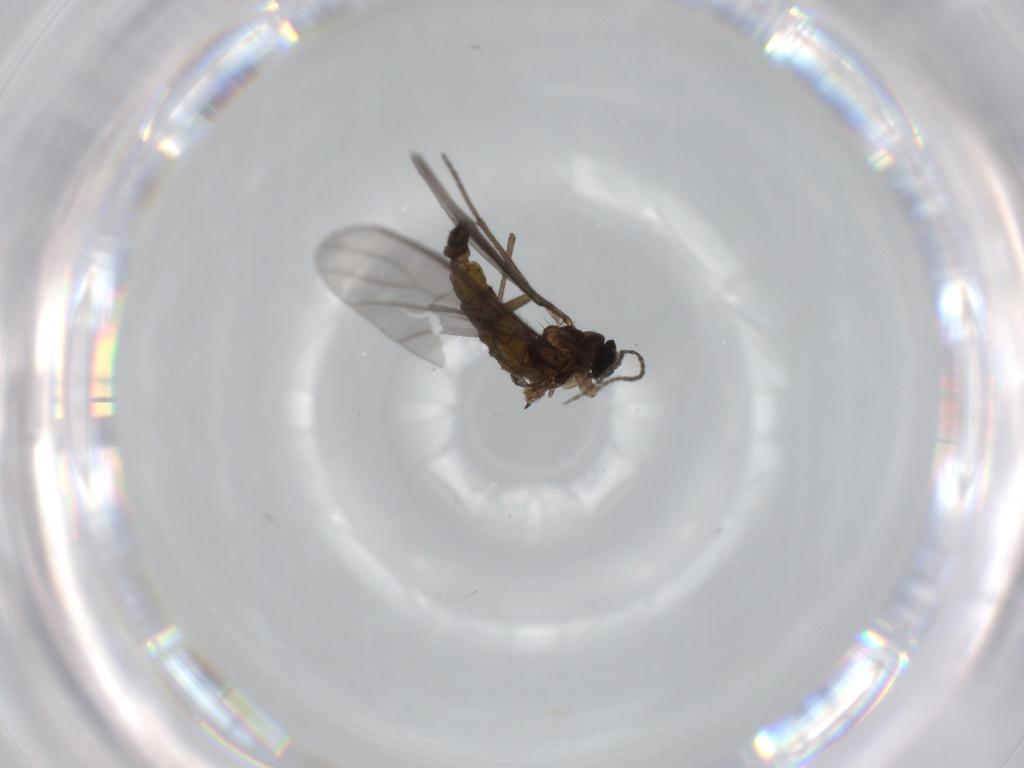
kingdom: Animalia
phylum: Arthropoda
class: Insecta
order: Diptera
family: Sciaridae
